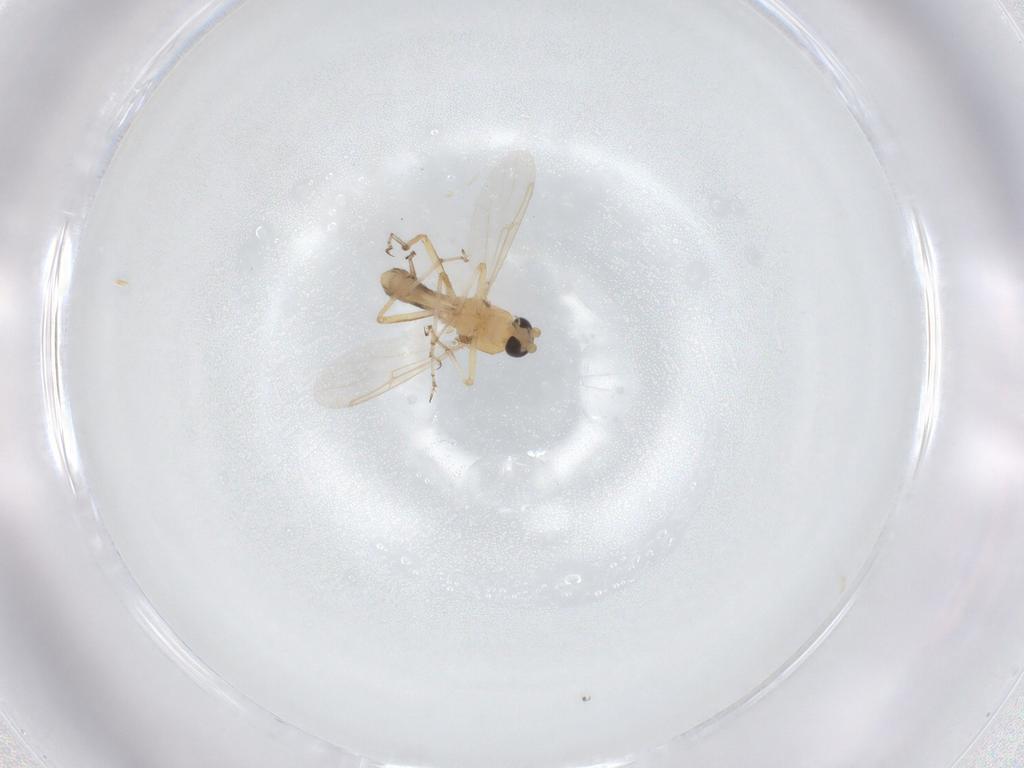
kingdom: Animalia
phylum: Arthropoda
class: Insecta
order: Diptera
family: Ceratopogonidae
